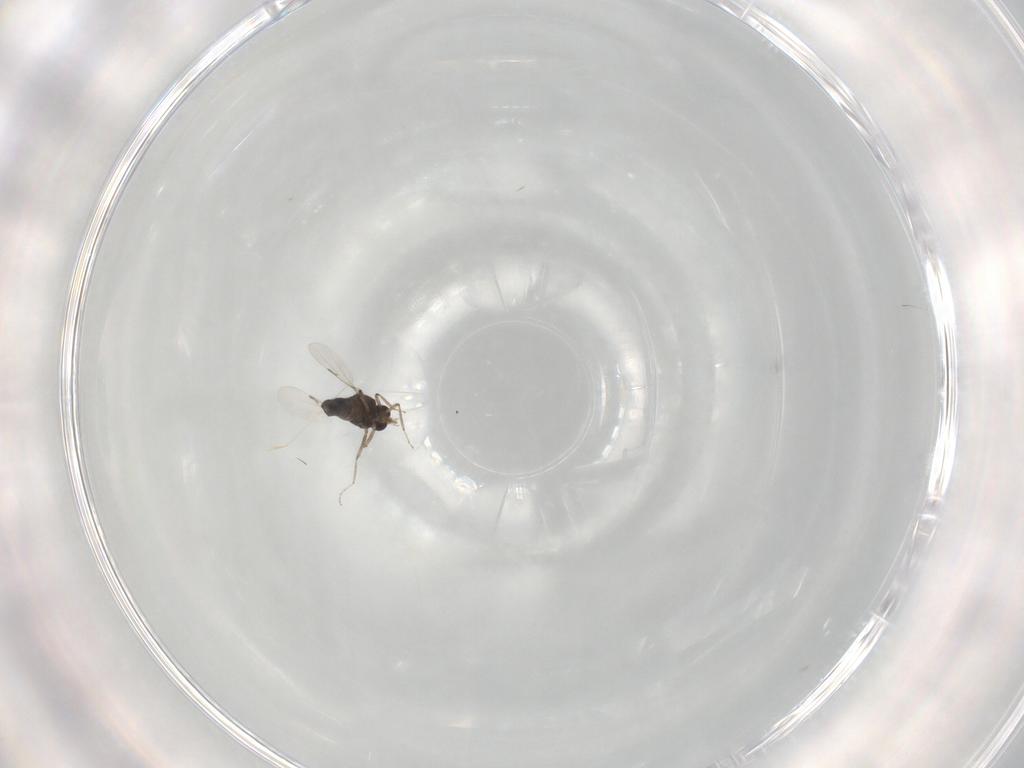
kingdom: Animalia
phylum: Arthropoda
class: Insecta
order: Diptera
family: Ceratopogonidae
